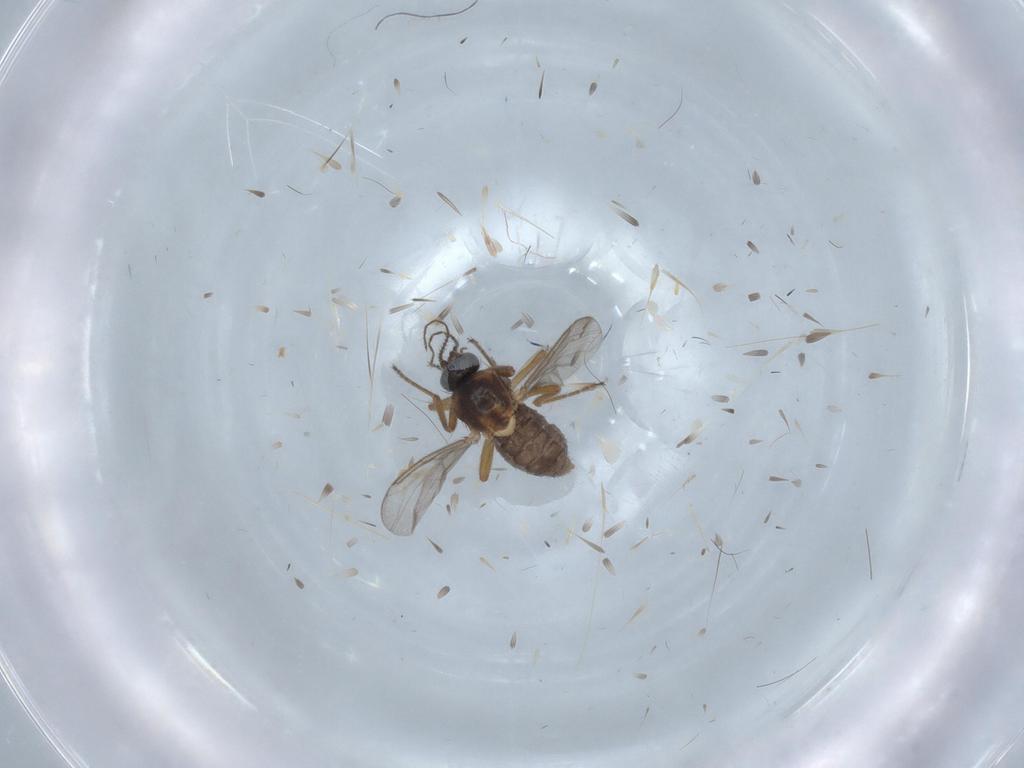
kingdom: Animalia
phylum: Arthropoda
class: Insecta
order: Diptera
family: Ceratopogonidae
